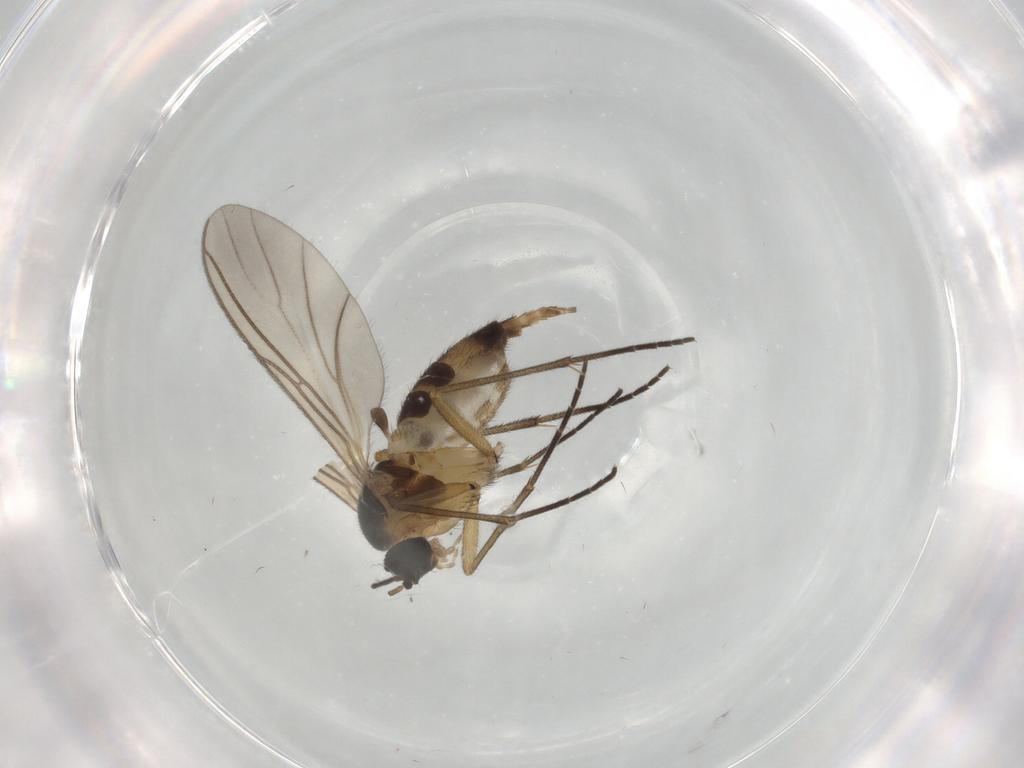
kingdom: Animalia
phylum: Arthropoda
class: Insecta
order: Diptera
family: Sciaridae
